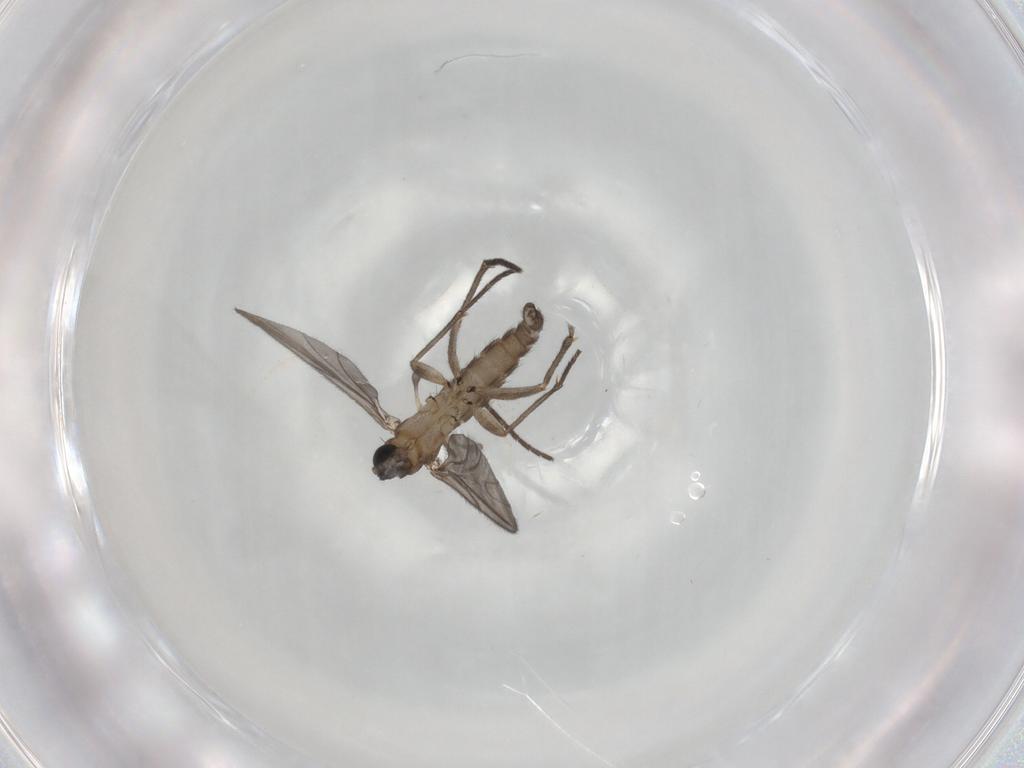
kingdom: Animalia
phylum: Arthropoda
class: Insecta
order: Diptera
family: Sciaridae
